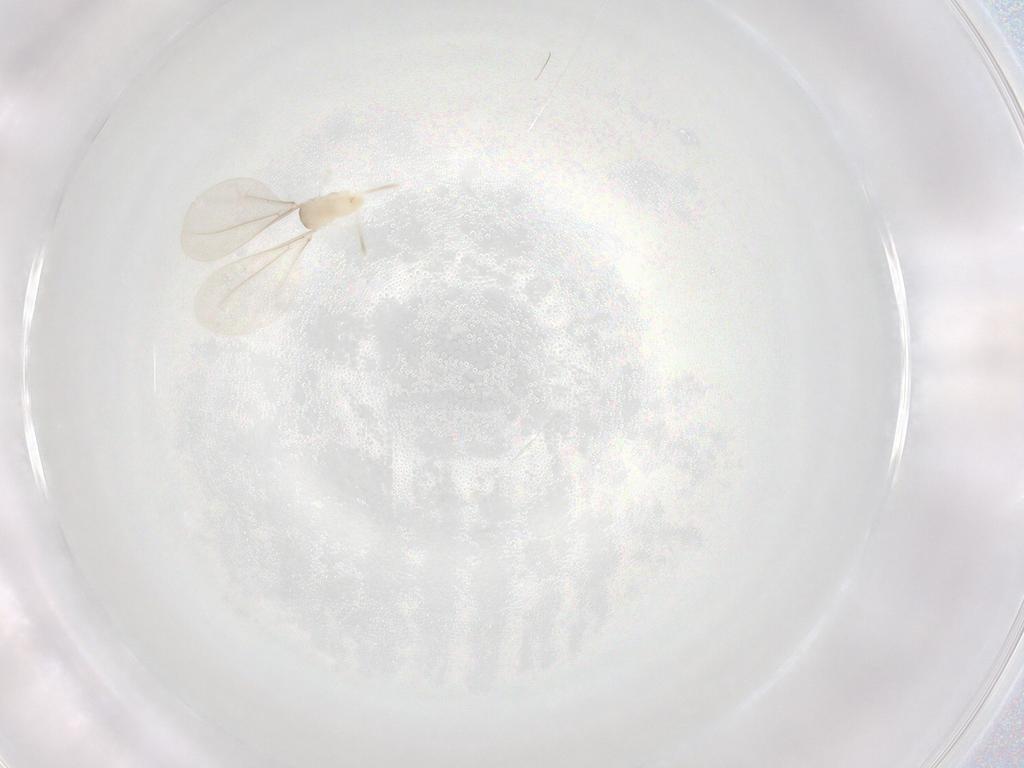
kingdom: Animalia
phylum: Arthropoda
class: Insecta
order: Diptera
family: Cecidomyiidae
